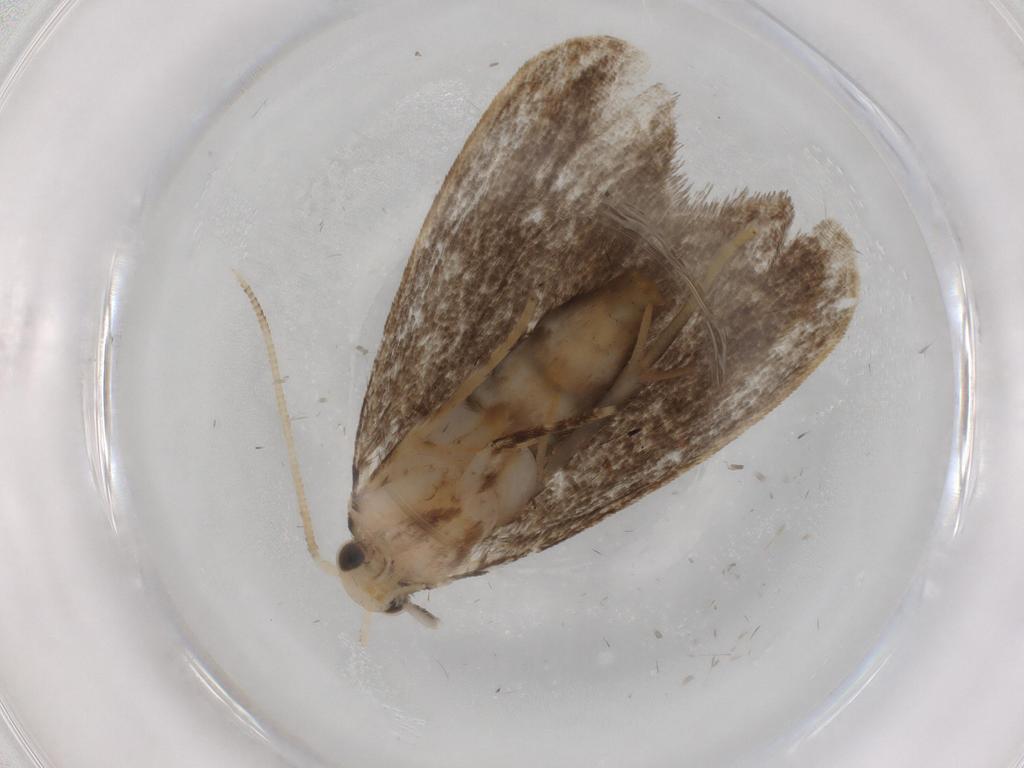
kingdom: Animalia
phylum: Arthropoda
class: Insecta
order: Lepidoptera
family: Dryadaulidae
